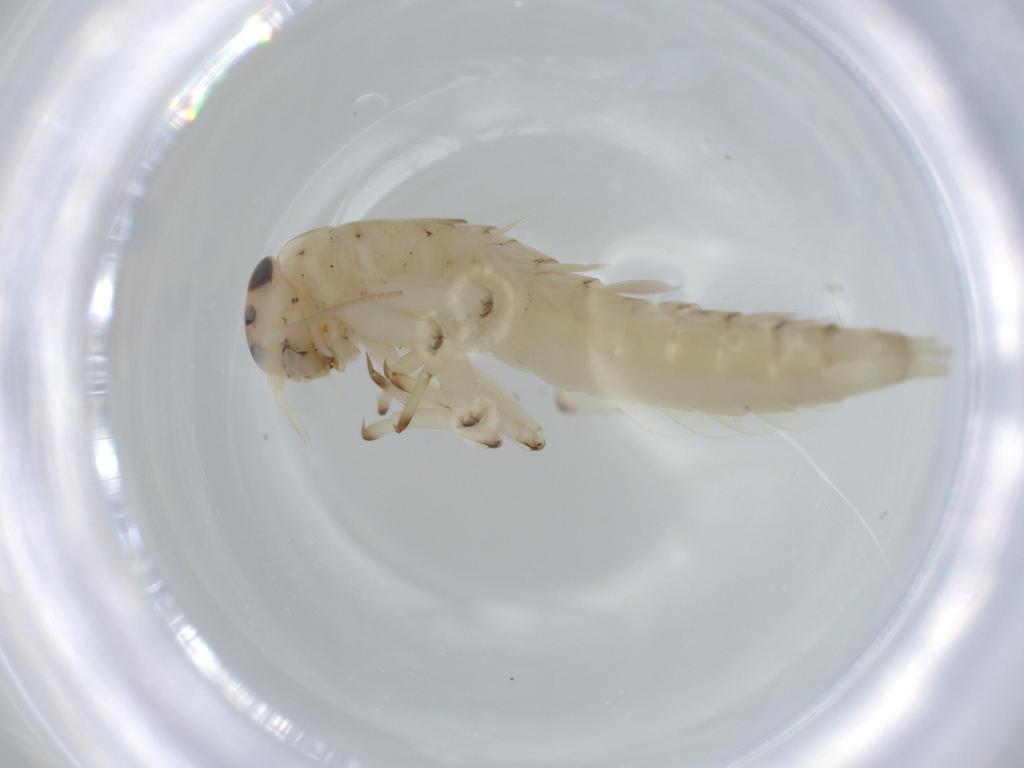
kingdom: Animalia
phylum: Arthropoda
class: Insecta
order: Ephemeroptera
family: Baetidae
